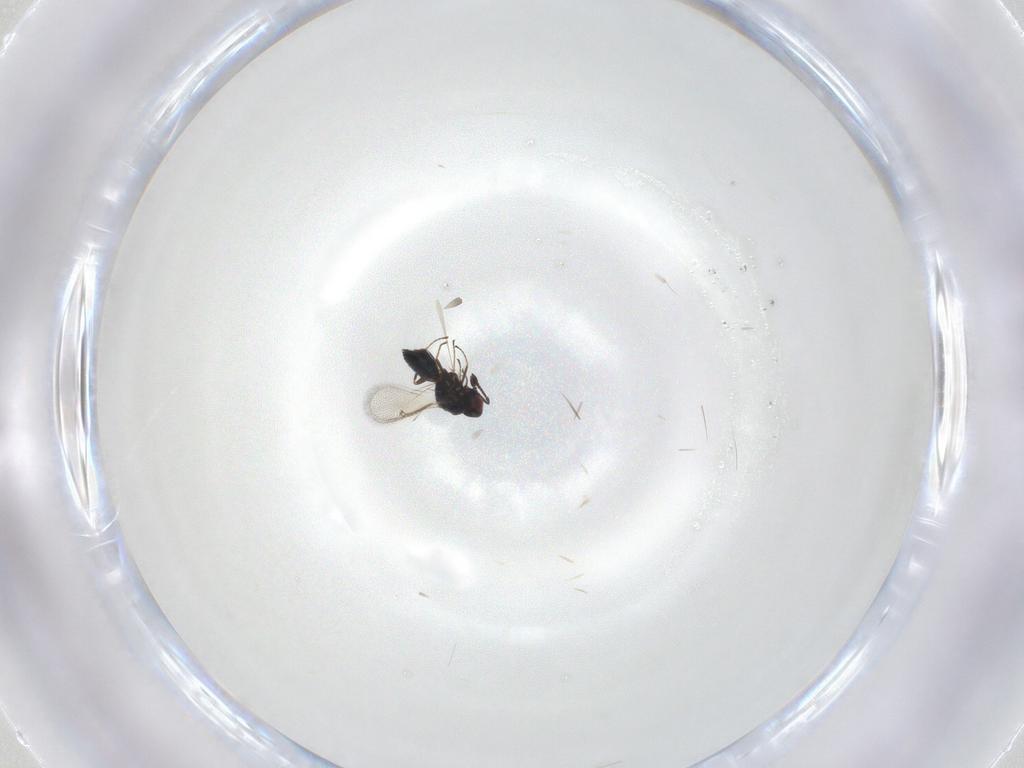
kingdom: Animalia
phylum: Arthropoda
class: Insecta
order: Hymenoptera
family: Tetracampidae
